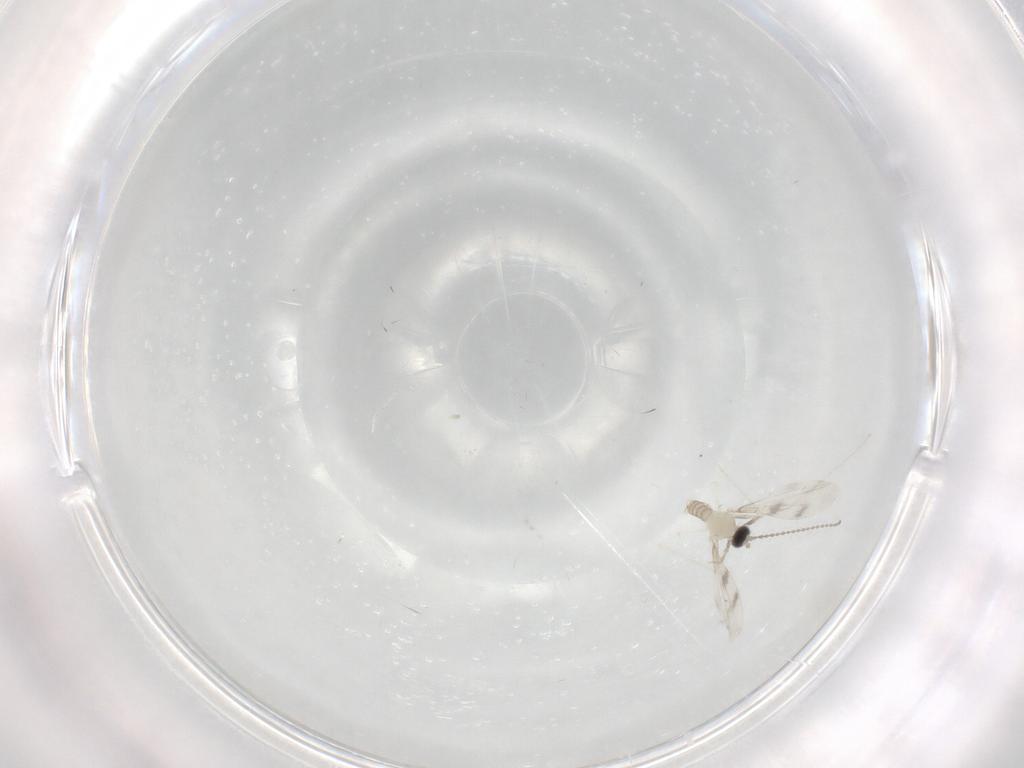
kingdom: Animalia
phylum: Arthropoda
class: Insecta
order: Diptera
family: Cecidomyiidae
